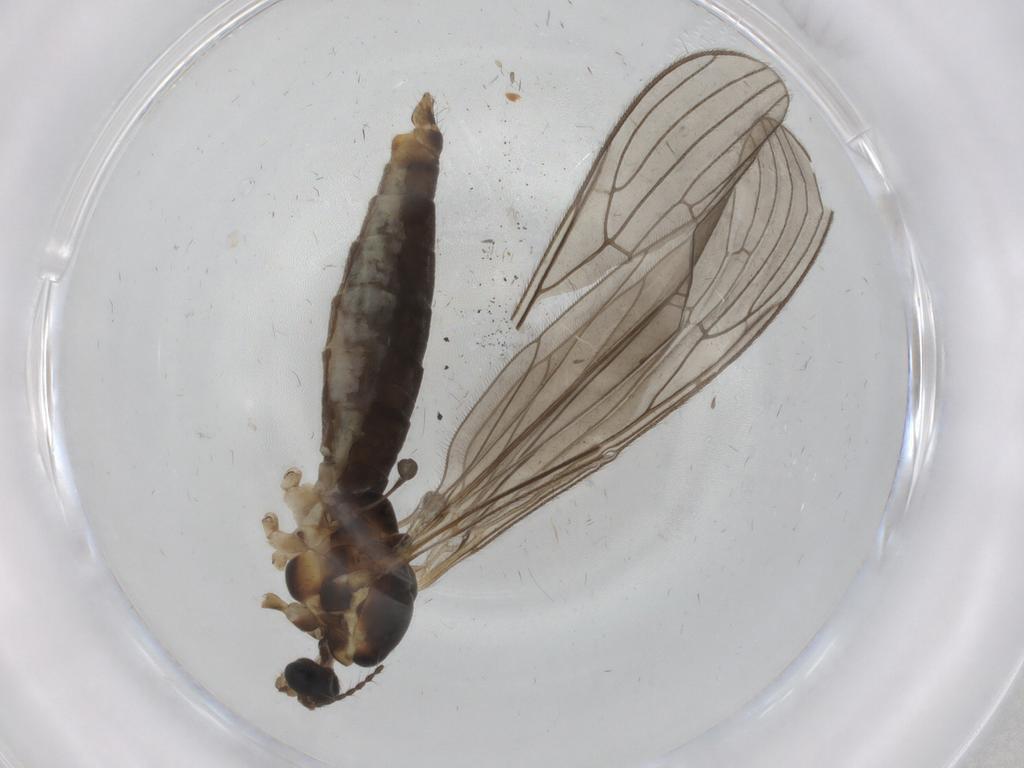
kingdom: Animalia
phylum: Arthropoda
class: Insecta
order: Diptera
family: Limoniidae
